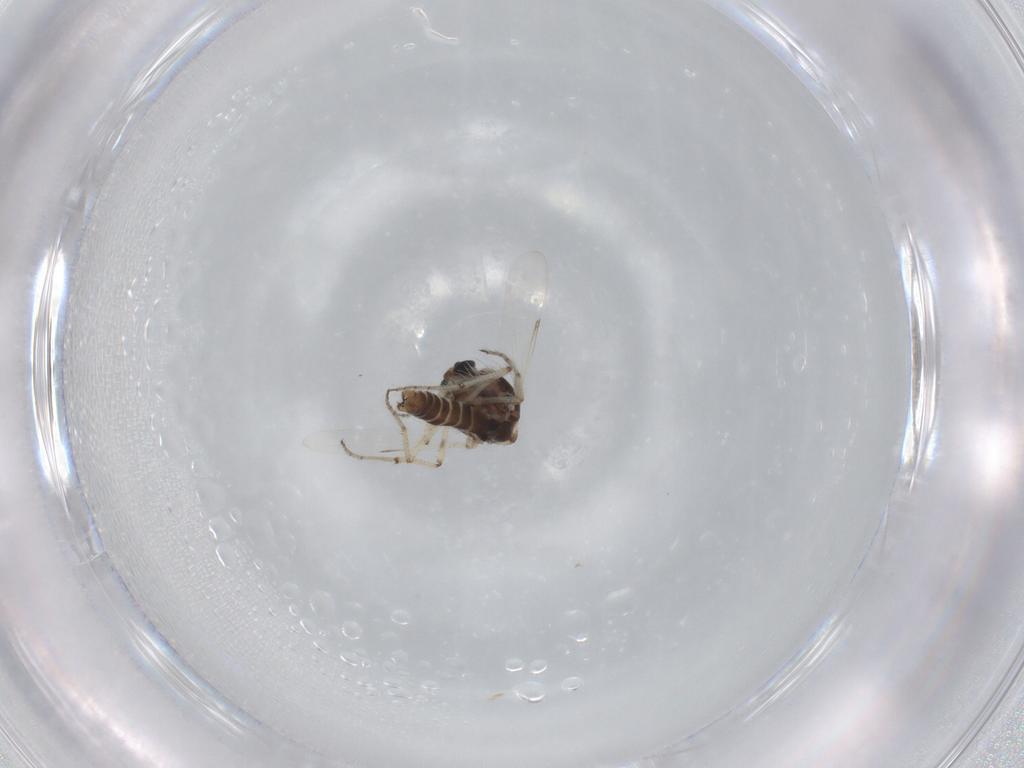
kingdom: Animalia
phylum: Arthropoda
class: Insecta
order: Diptera
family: Ceratopogonidae
